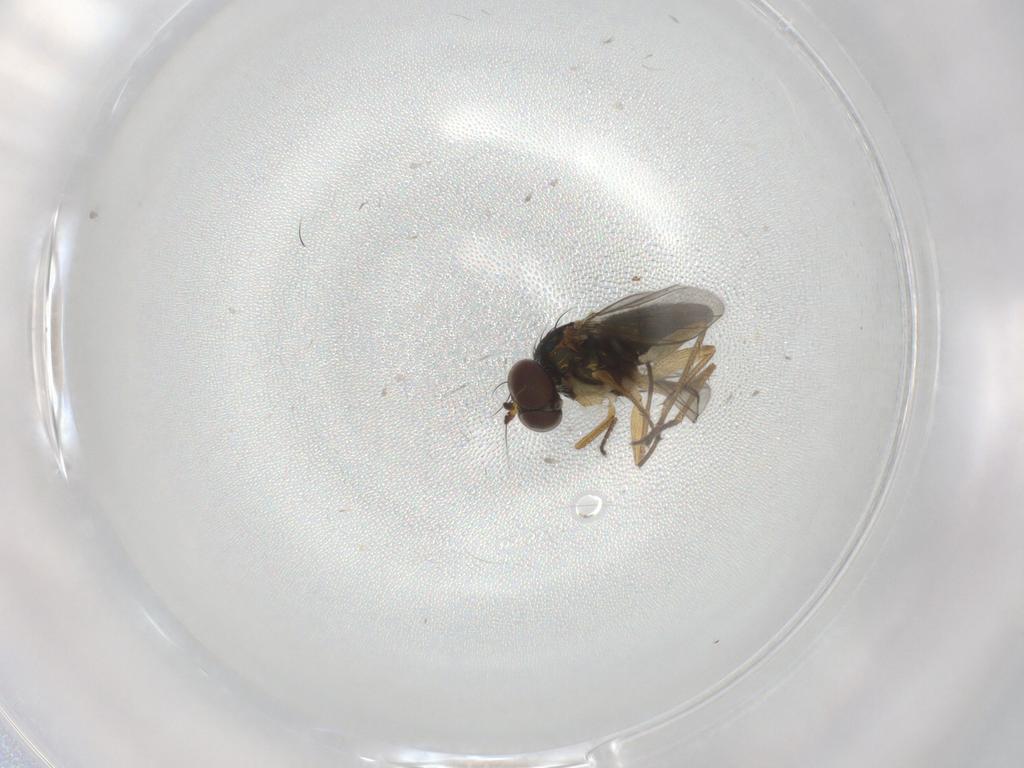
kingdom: Animalia
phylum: Arthropoda
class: Insecta
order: Diptera
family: Dolichopodidae
